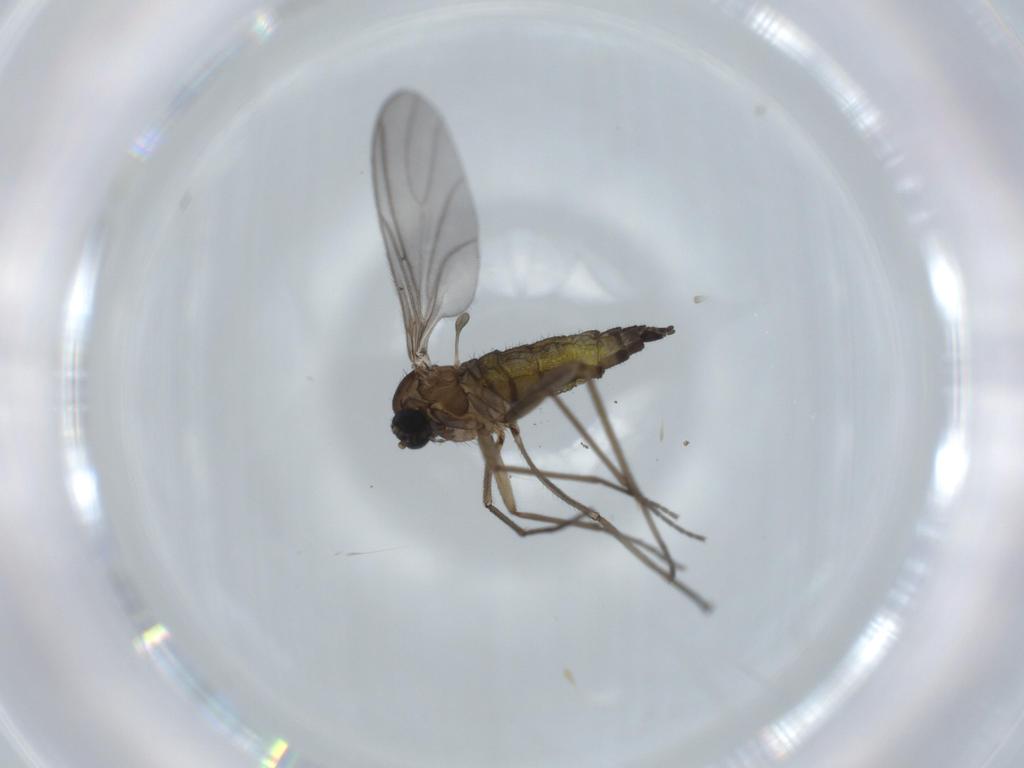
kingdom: Animalia
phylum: Arthropoda
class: Insecta
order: Diptera
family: Sciaridae
